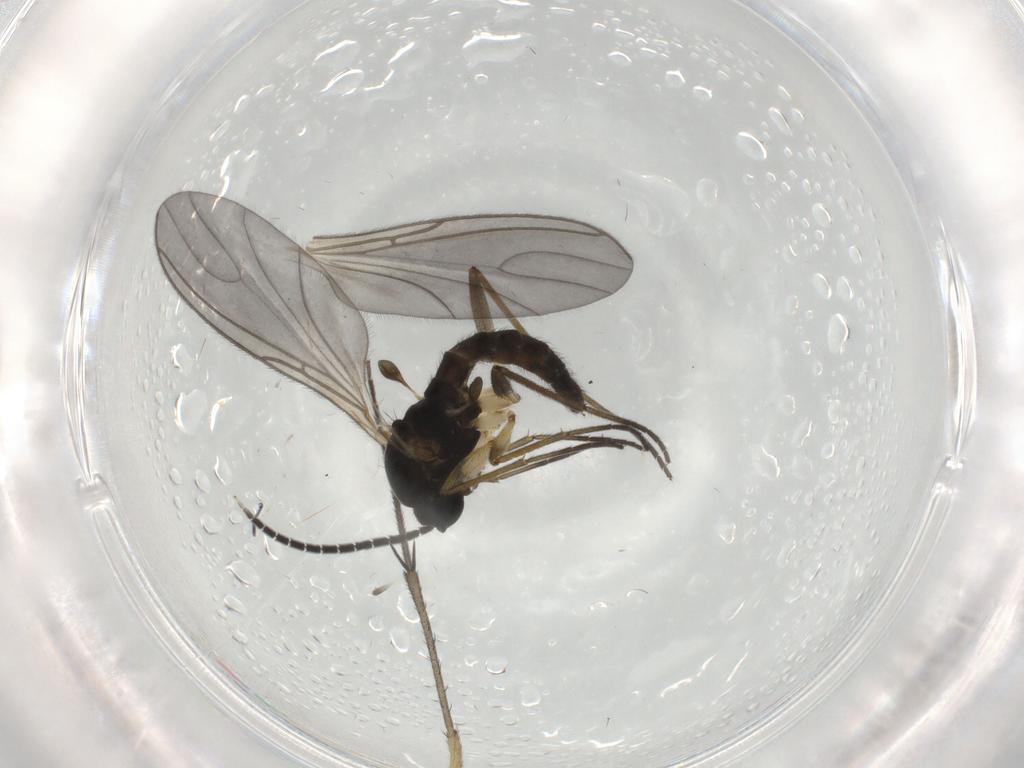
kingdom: Animalia
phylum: Arthropoda
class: Insecta
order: Diptera
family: Sciaridae
